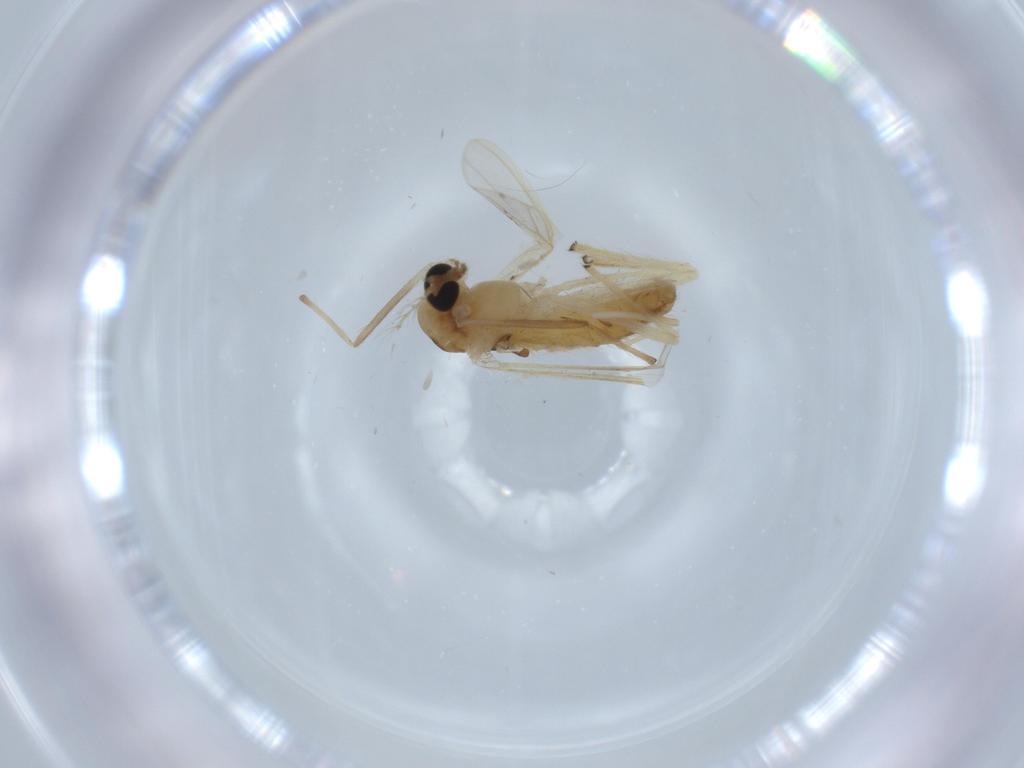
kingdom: Animalia
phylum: Arthropoda
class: Insecta
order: Diptera
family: Chironomidae
